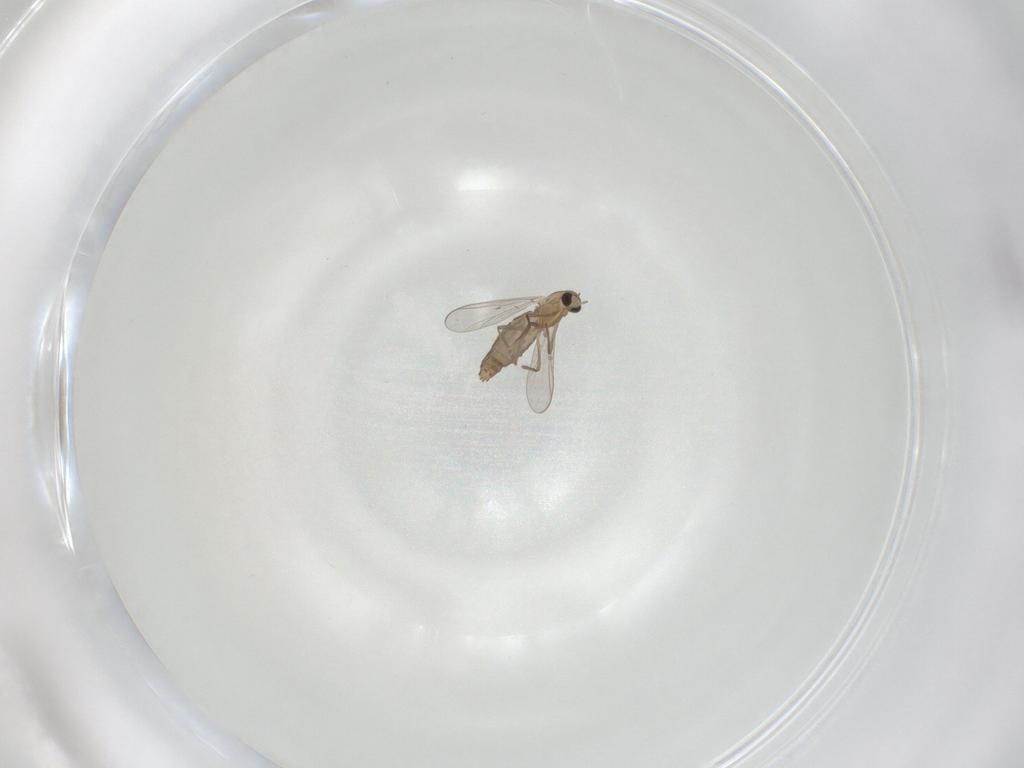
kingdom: Animalia
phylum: Arthropoda
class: Insecta
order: Diptera
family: Chironomidae
